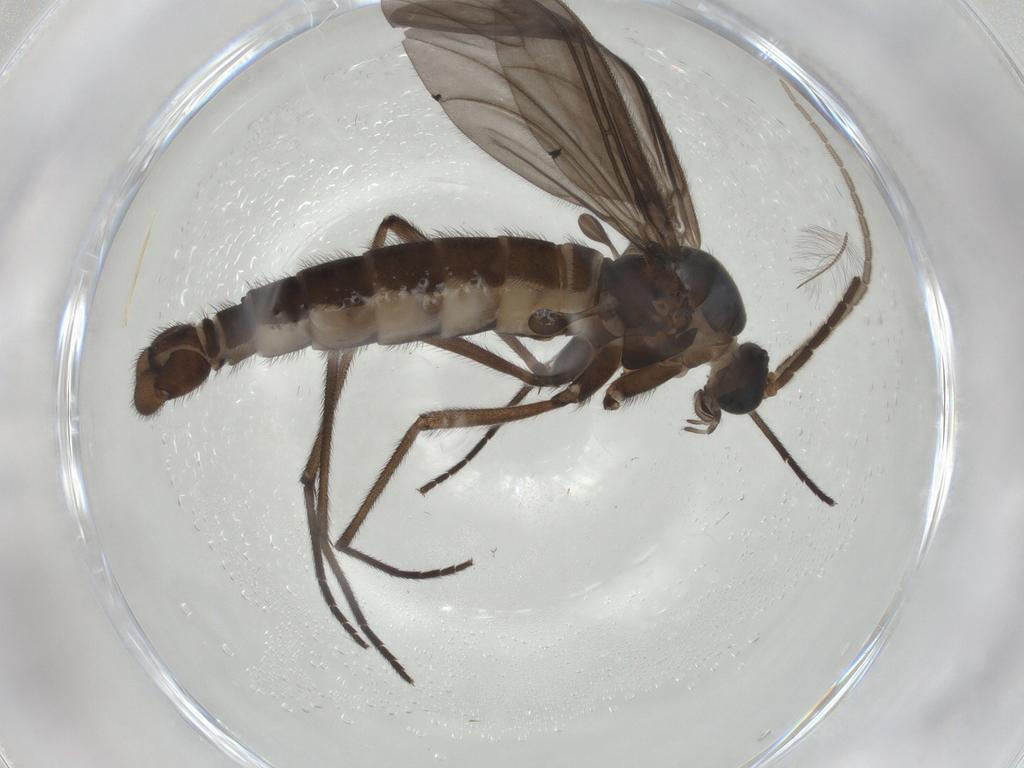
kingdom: Animalia
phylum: Arthropoda
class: Insecta
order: Diptera
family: Sciaridae
